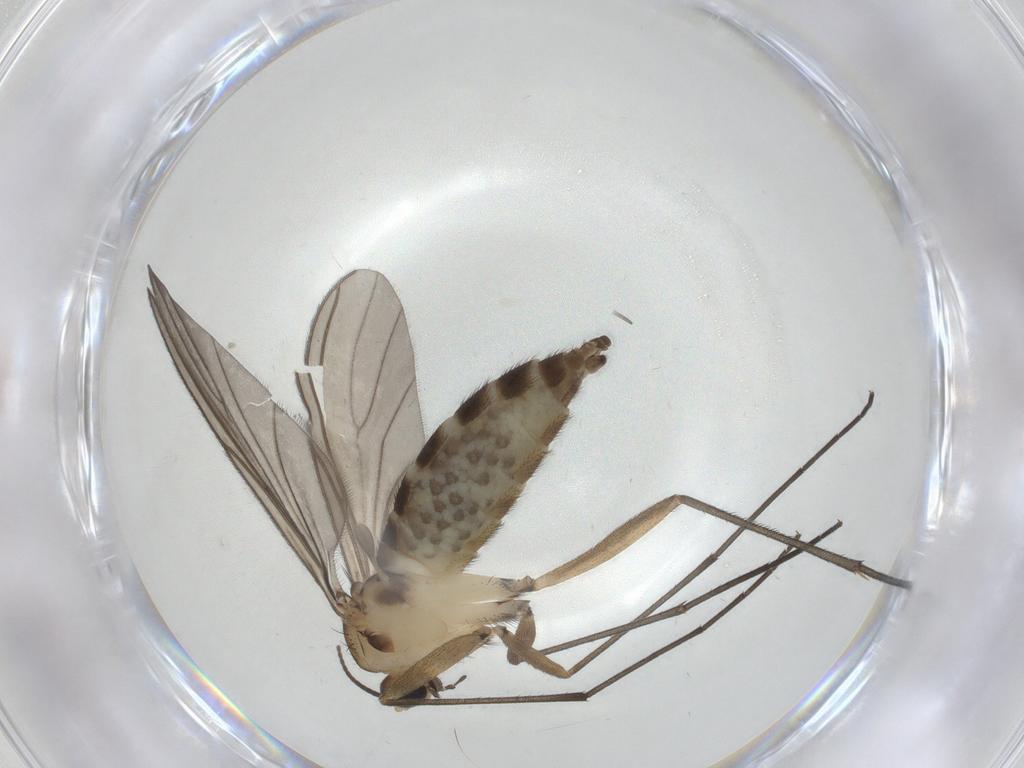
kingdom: Animalia
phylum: Arthropoda
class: Insecta
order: Diptera
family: Sciaridae
